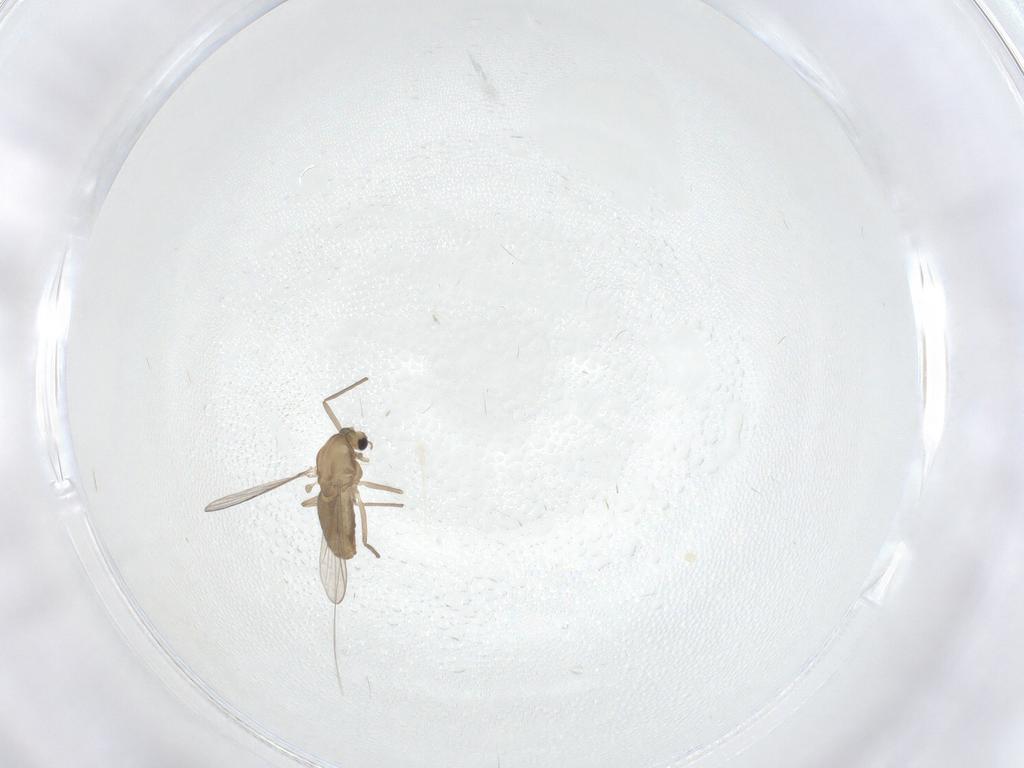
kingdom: Animalia
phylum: Arthropoda
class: Insecta
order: Diptera
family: Chironomidae
